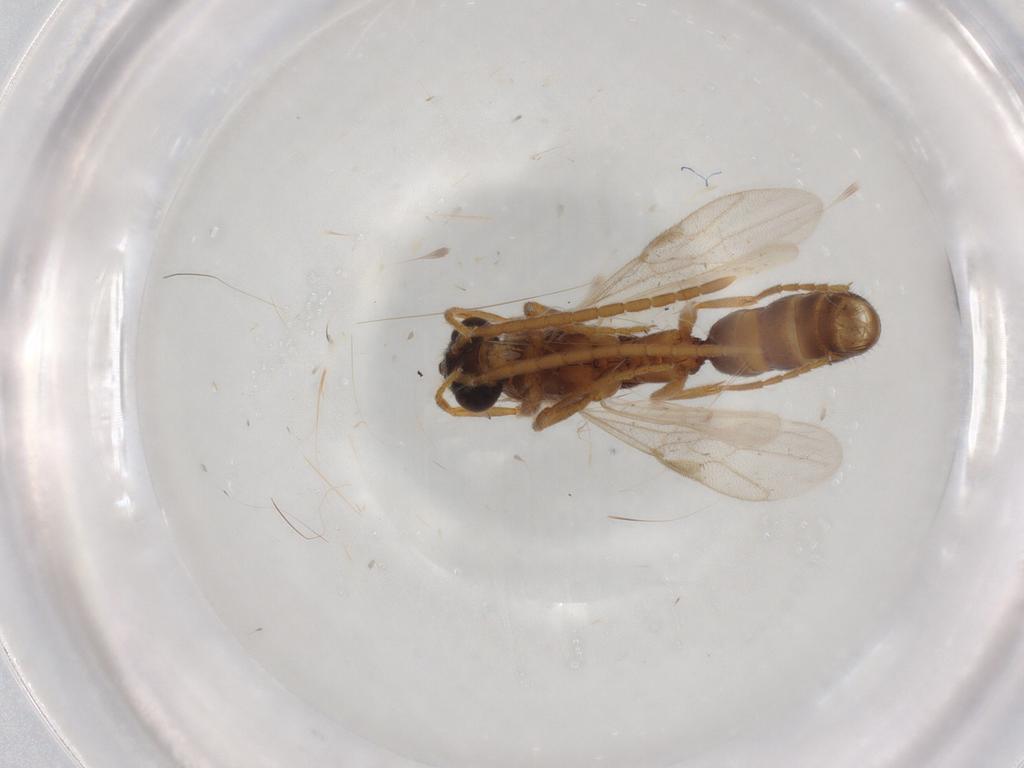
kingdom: Animalia
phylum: Arthropoda
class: Insecta
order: Hymenoptera
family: Formicidae
